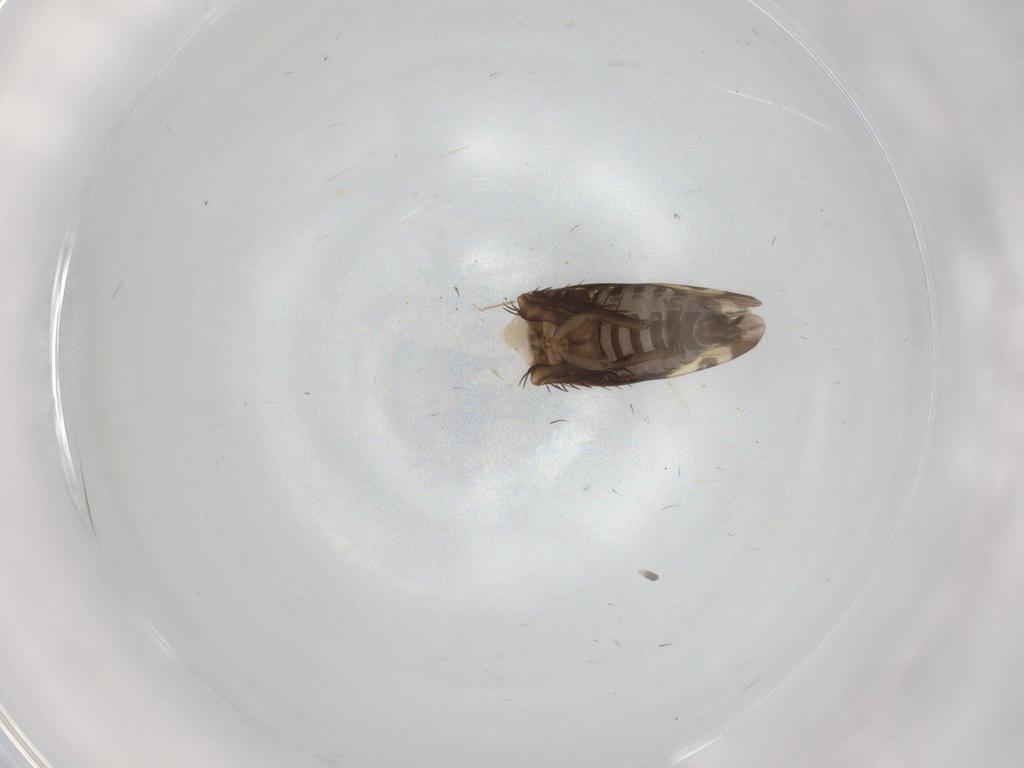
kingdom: Animalia
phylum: Arthropoda
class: Insecta
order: Hemiptera
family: Cicadellidae
